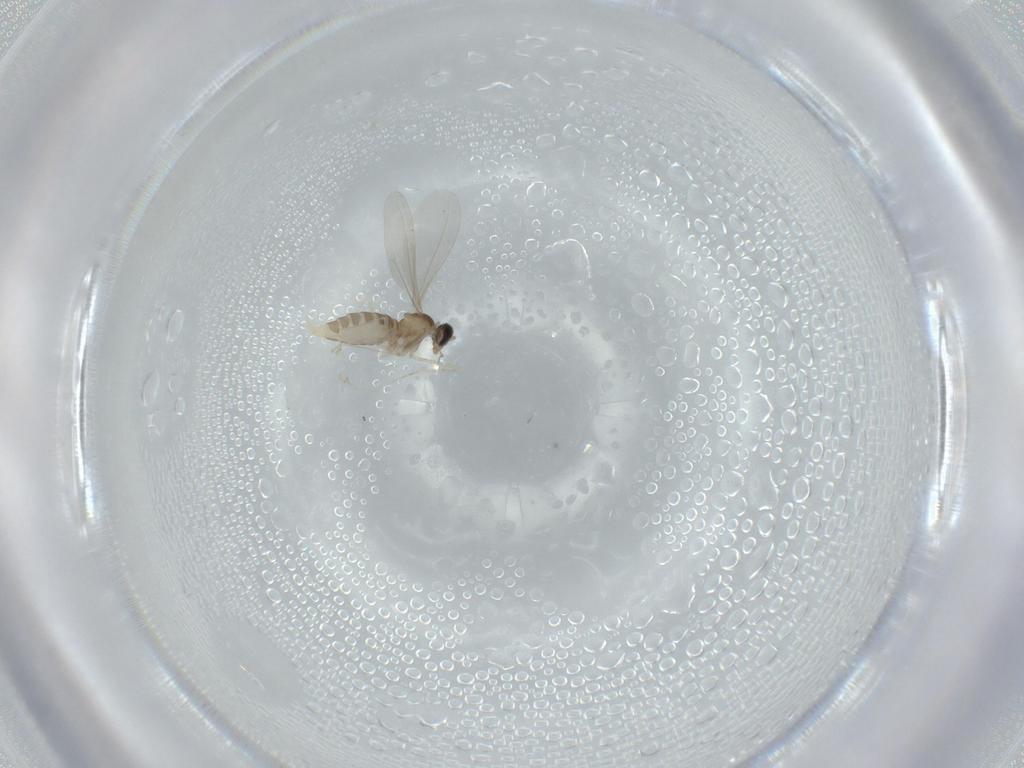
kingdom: Animalia
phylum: Arthropoda
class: Insecta
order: Diptera
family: Cecidomyiidae
